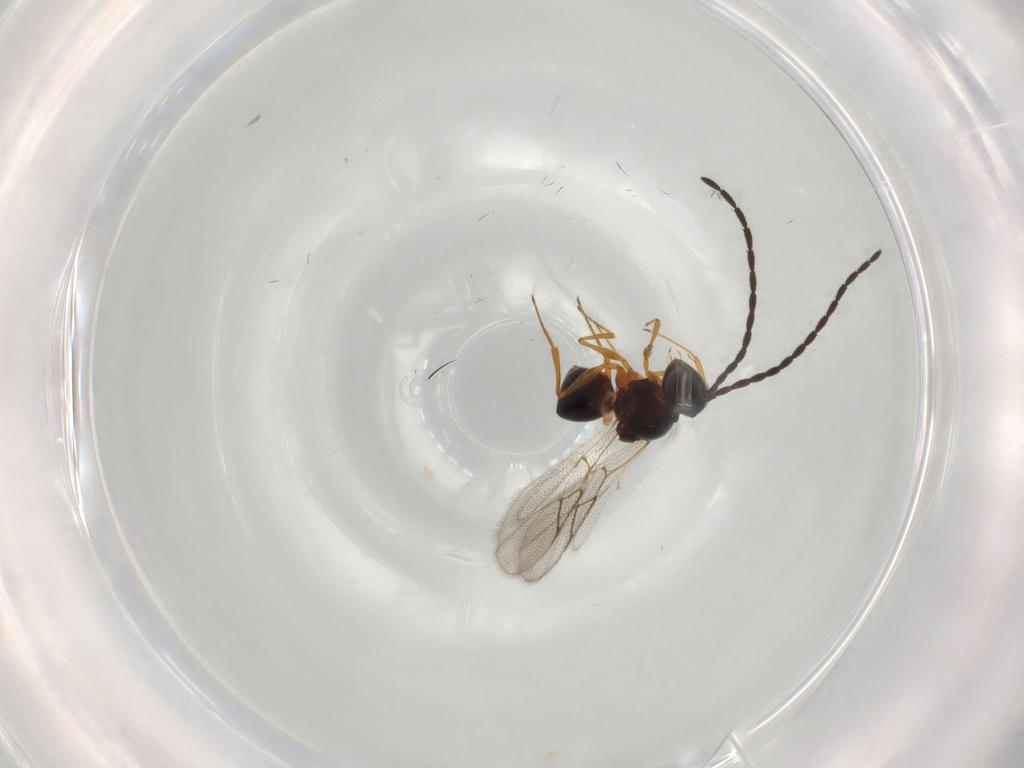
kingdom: Animalia
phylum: Arthropoda
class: Insecta
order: Hymenoptera
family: Figitidae
